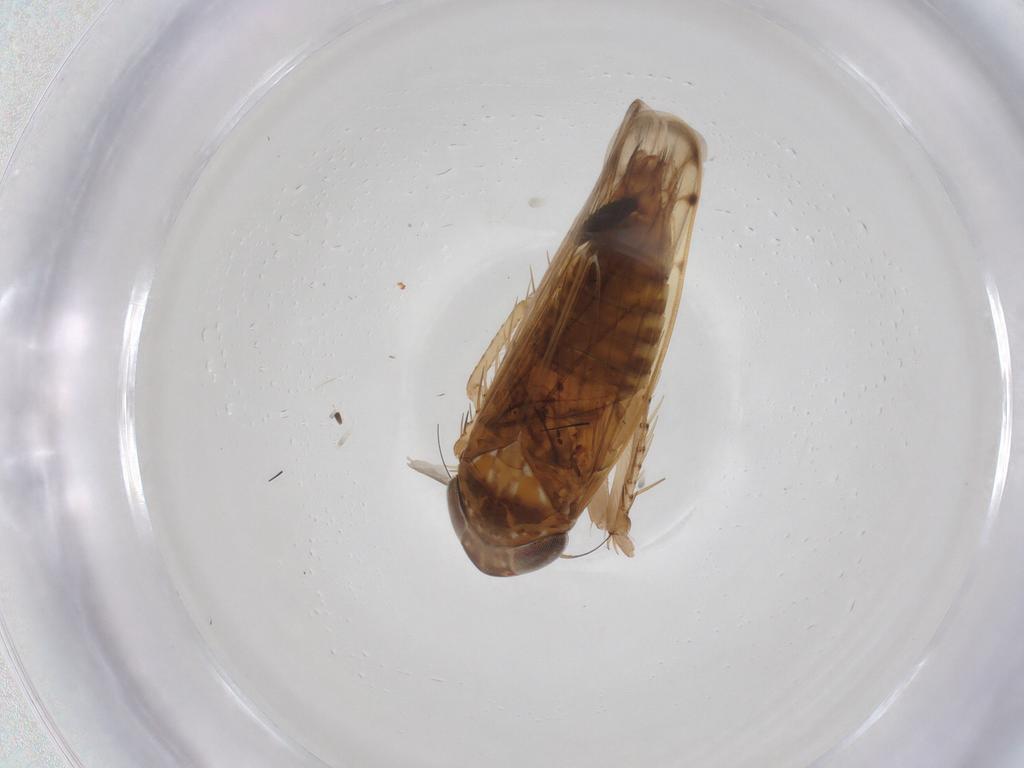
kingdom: Animalia
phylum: Arthropoda
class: Insecta
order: Hemiptera
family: Cicadellidae
